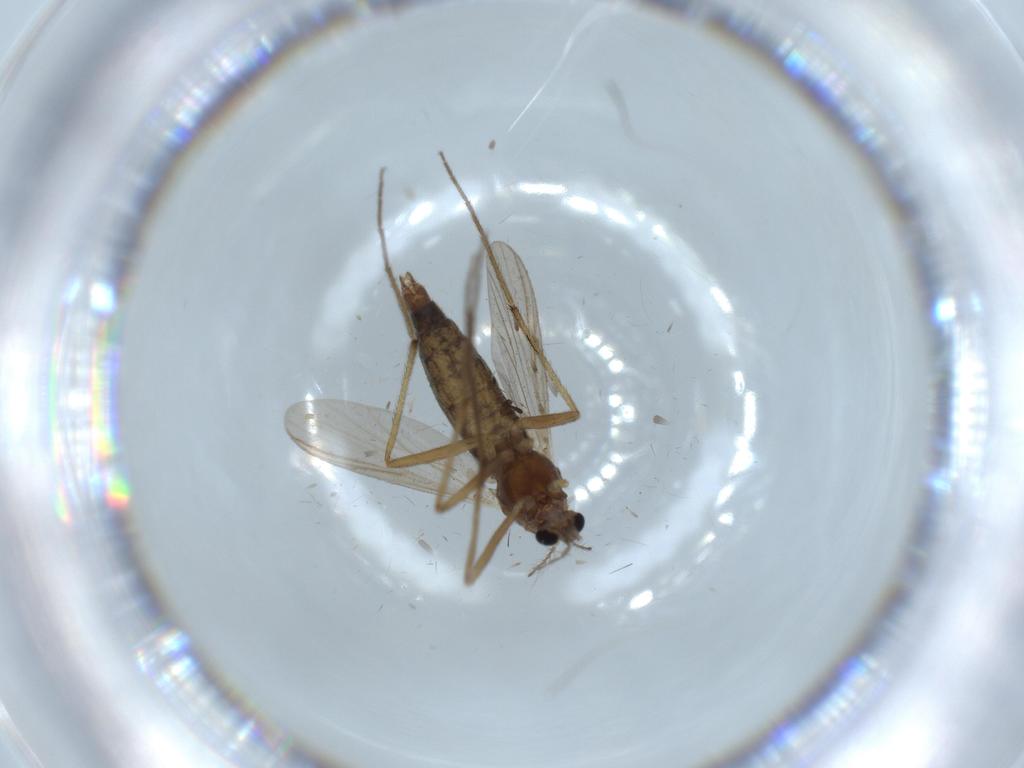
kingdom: Animalia
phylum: Arthropoda
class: Insecta
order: Diptera
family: Chironomidae
